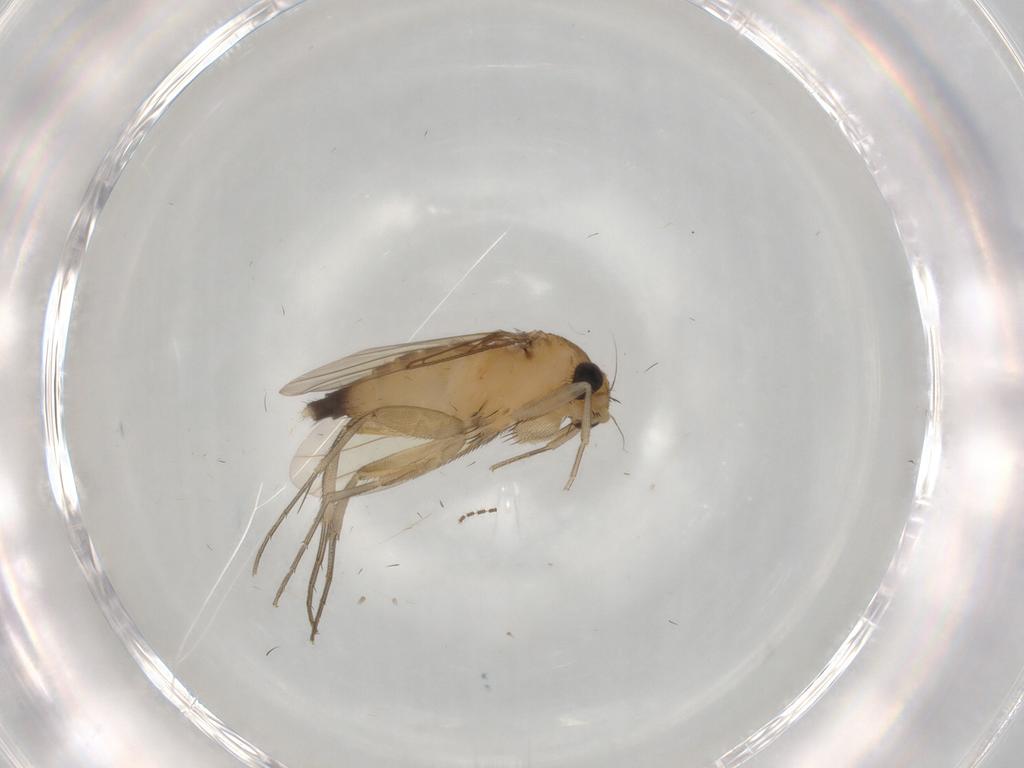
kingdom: Animalia
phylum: Arthropoda
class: Insecta
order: Diptera
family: Phoridae
